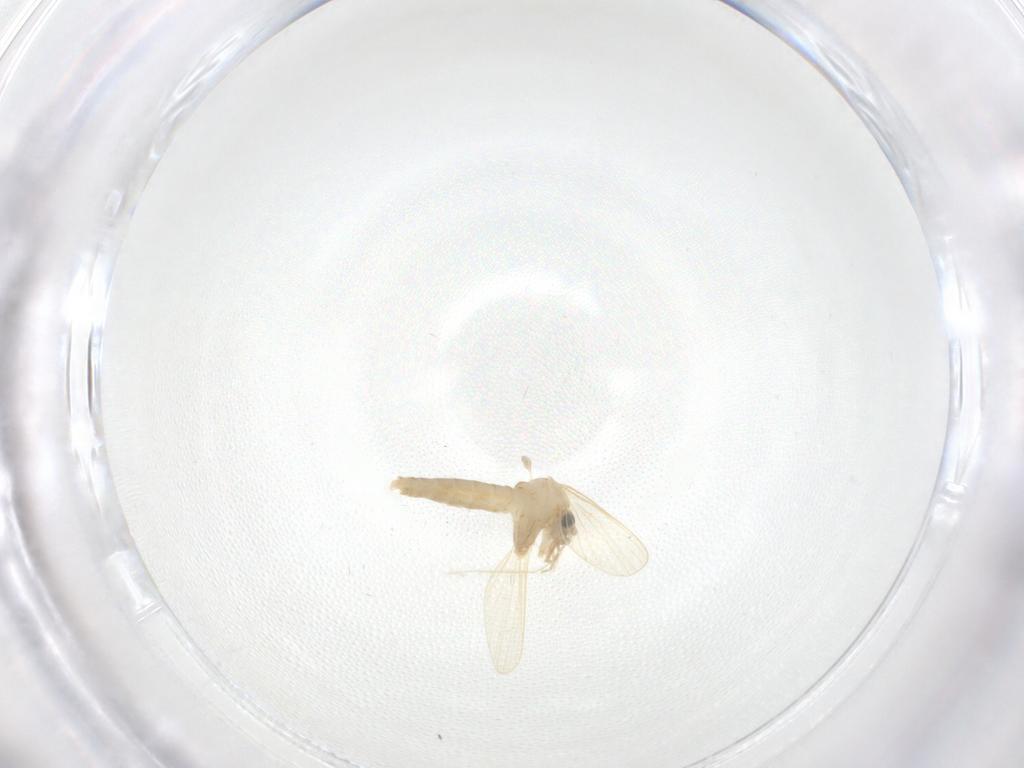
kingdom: Animalia
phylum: Arthropoda
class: Insecta
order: Diptera
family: Psychodidae
